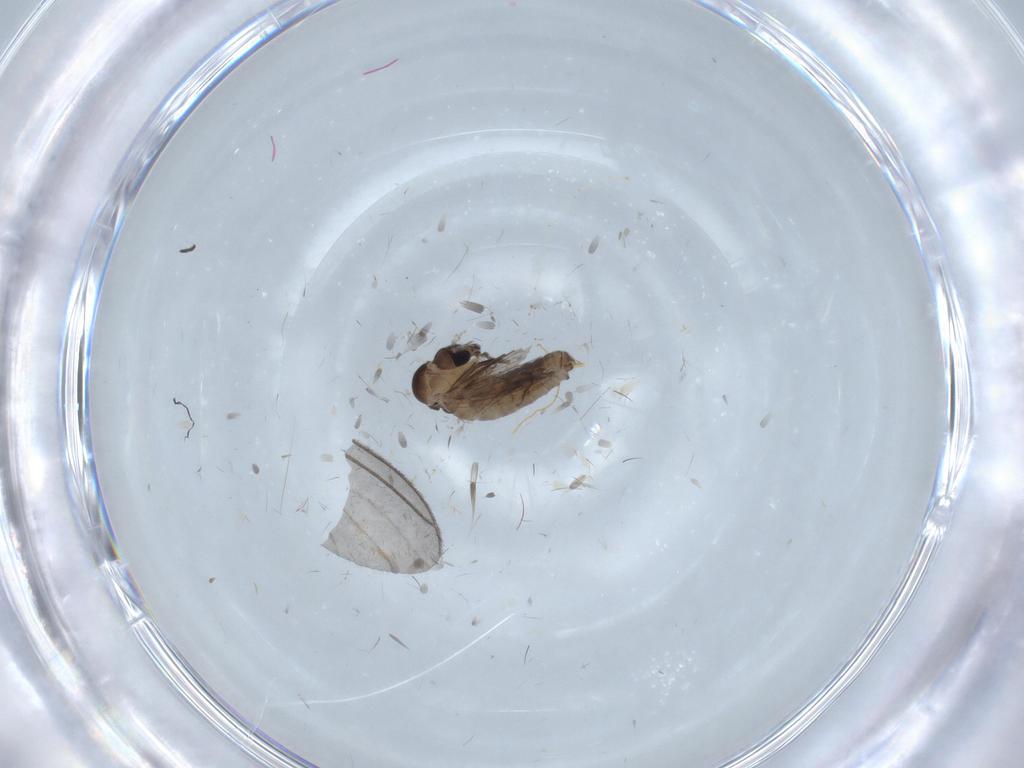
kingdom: Animalia
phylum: Arthropoda
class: Insecta
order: Diptera
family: Psychodidae
